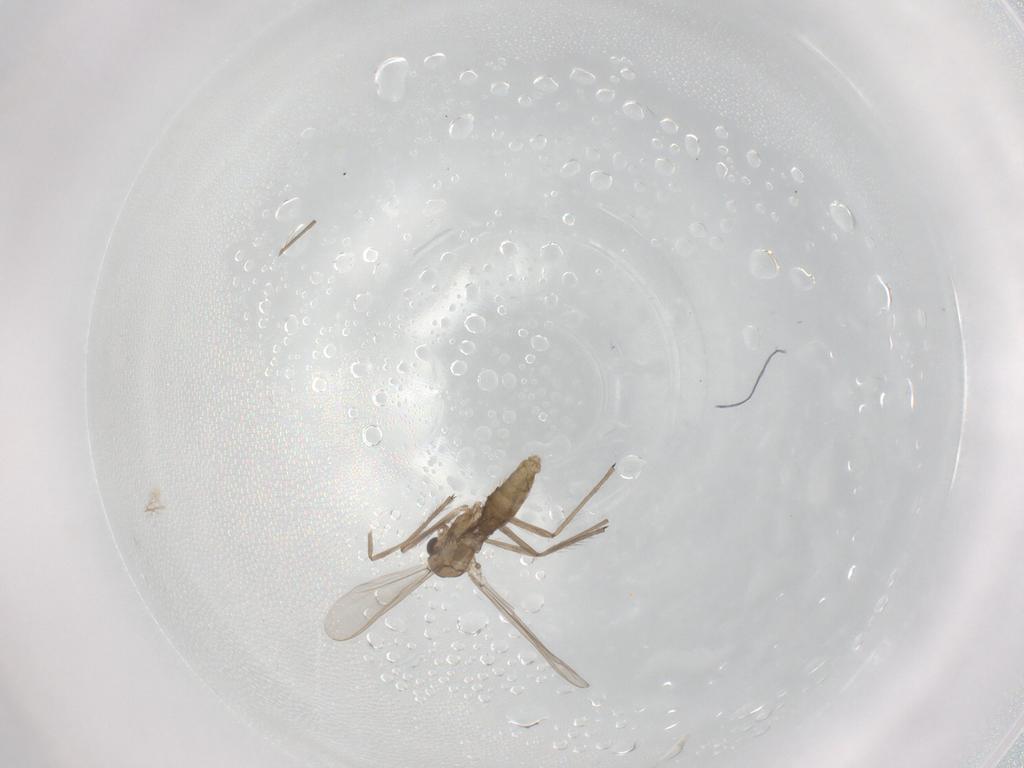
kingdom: Animalia
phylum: Arthropoda
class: Insecta
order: Diptera
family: Chironomidae
